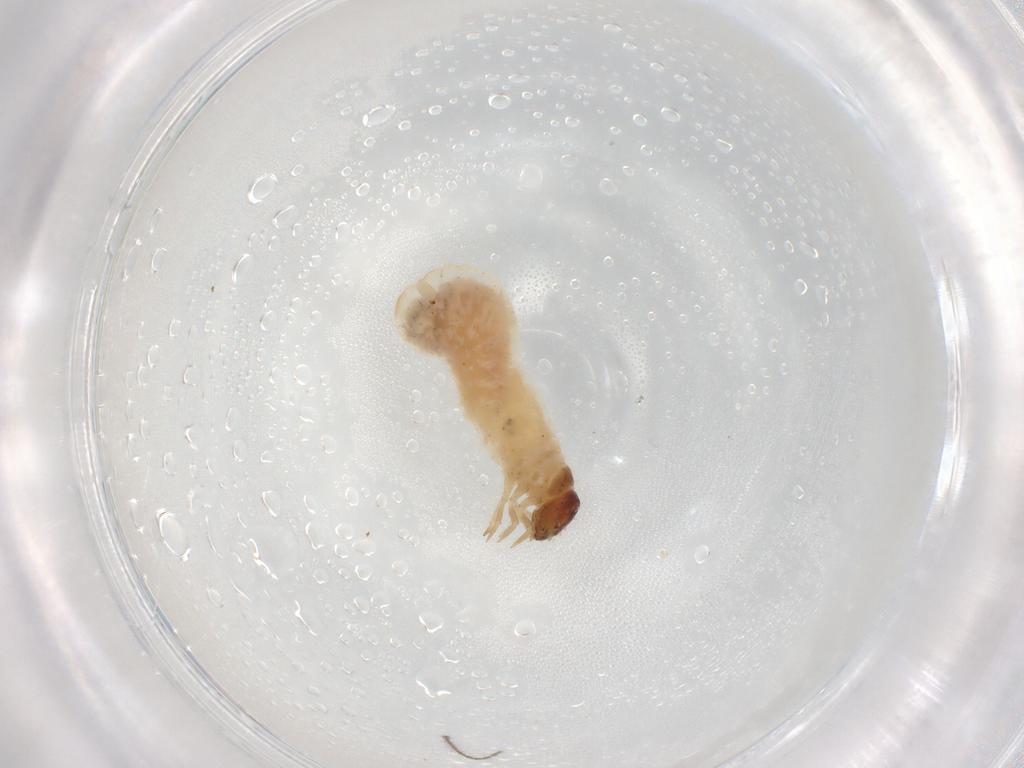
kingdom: Animalia
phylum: Arthropoda
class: Insecta
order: Coleoptera
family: Chrysomelidae
